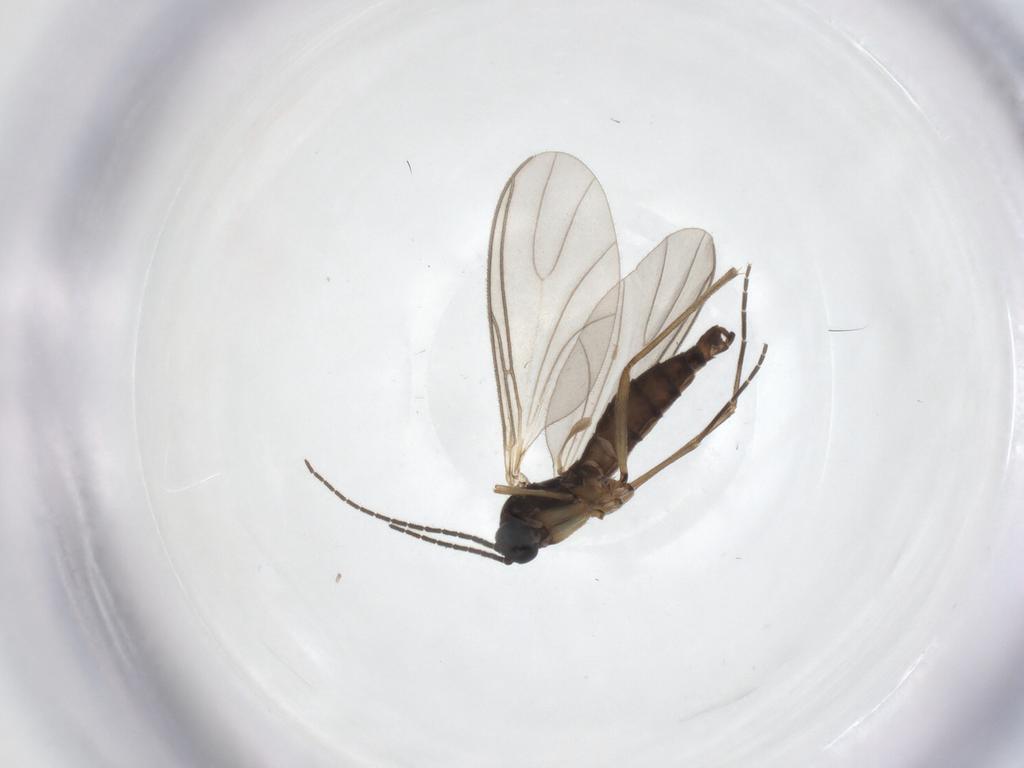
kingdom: Animalia
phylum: Arthropoda
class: Insecta
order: Diptera
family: Sciaridae
